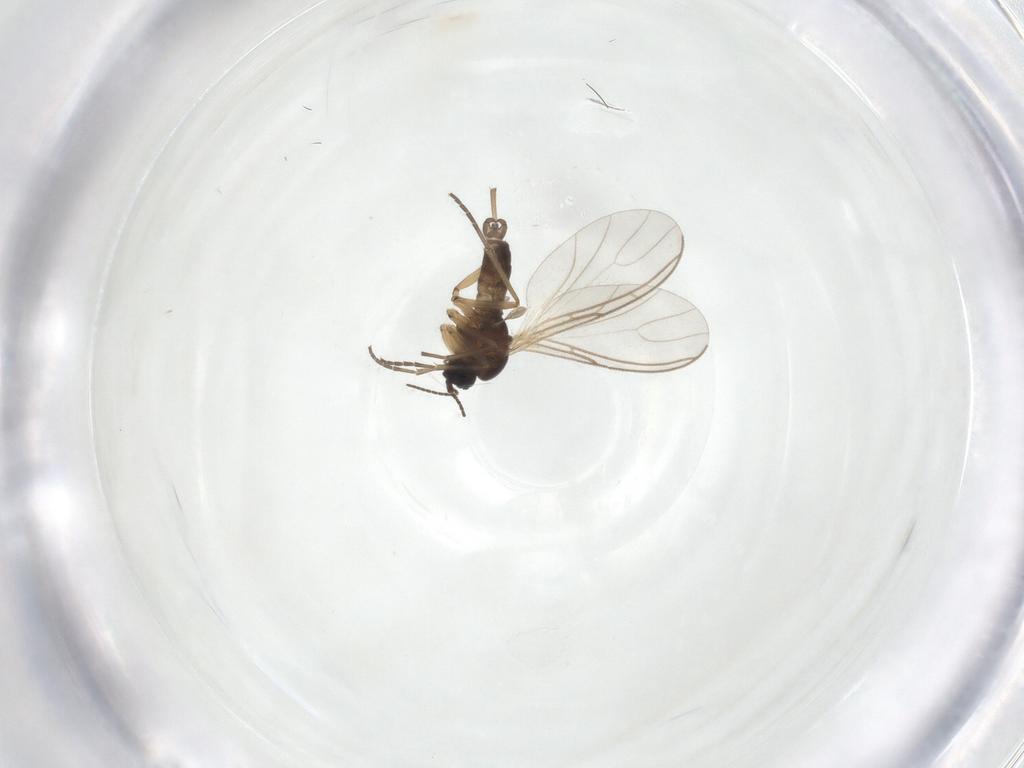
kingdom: Animalia
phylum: Arthropoda
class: Insecta
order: Diptera
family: Sciaridae
